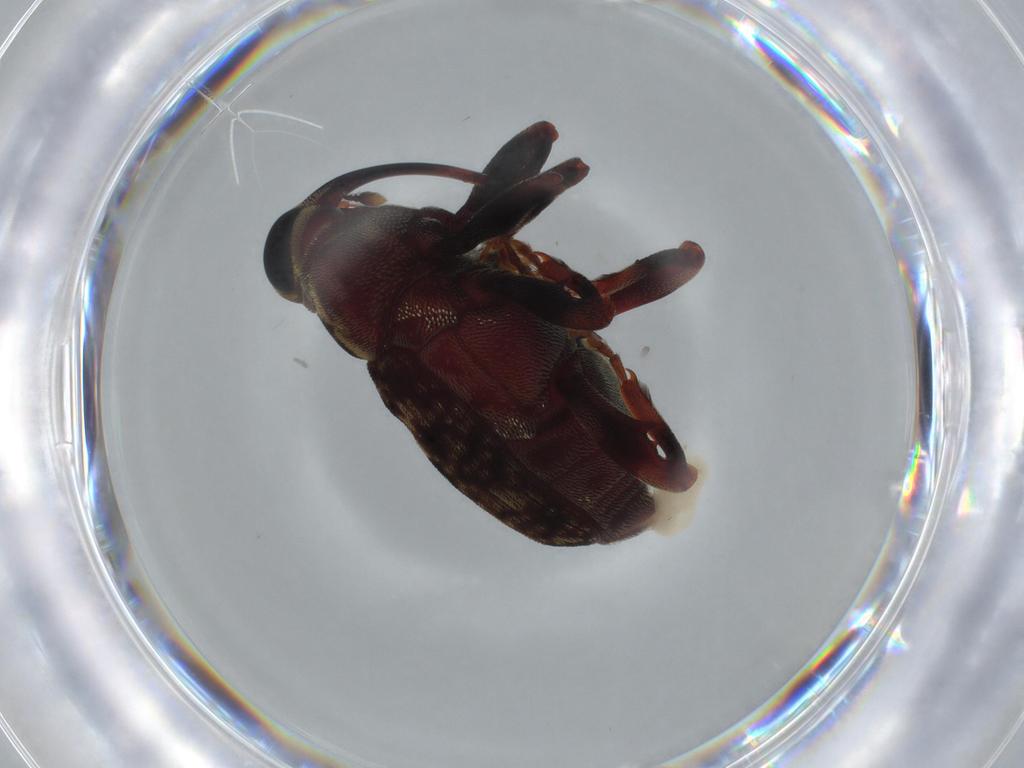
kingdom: Animalia
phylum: Arthropoda
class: Insecta
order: Coleoptera
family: Curculionidae
